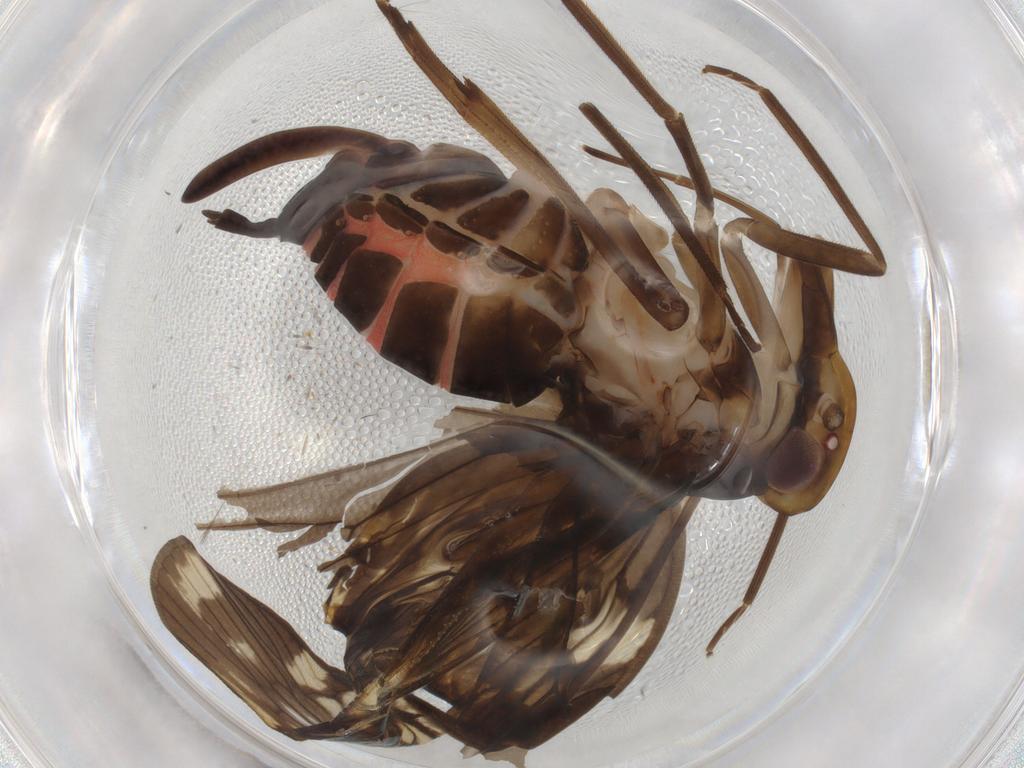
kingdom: Animalia
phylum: Arthropoda
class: Insecta
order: Hemiptera
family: Cixiidae
